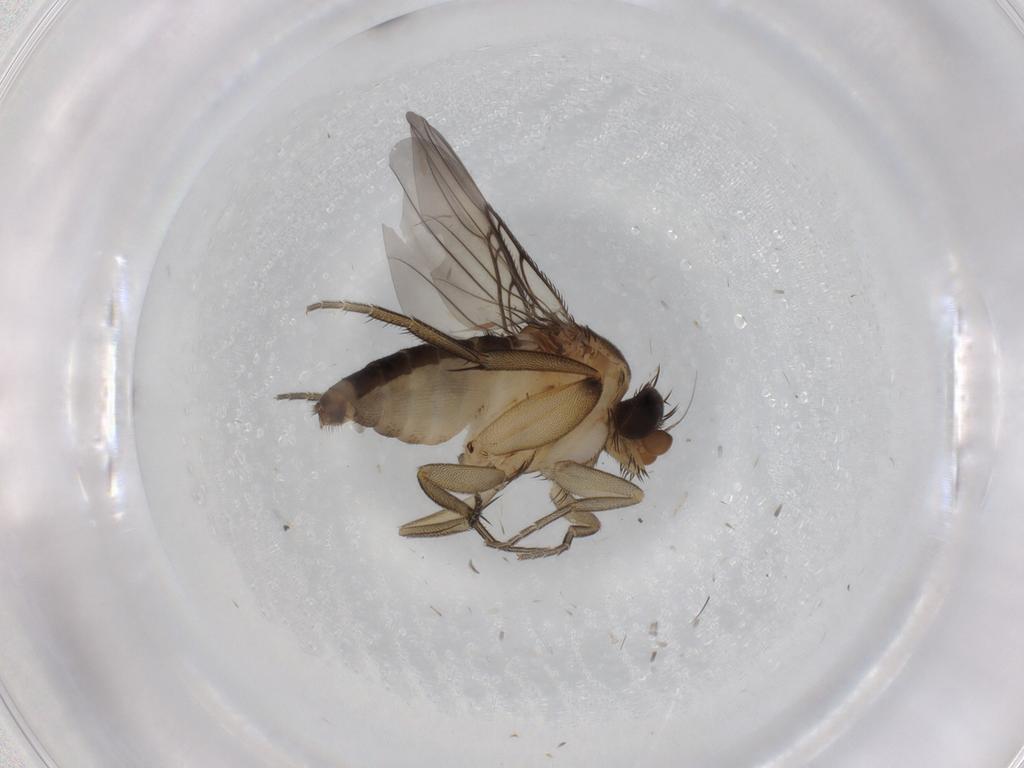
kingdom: Animalia
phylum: Arthropoda
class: Insecta
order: Diptera
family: Phoridae
